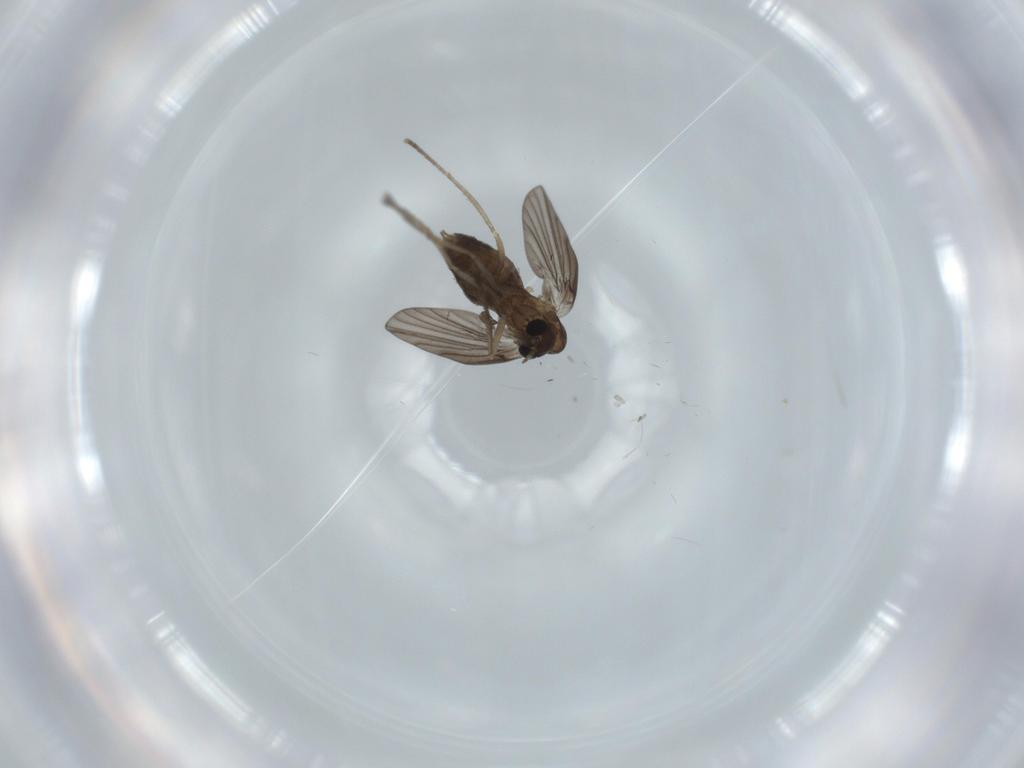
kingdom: Animalia
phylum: Arthropoda
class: Insecta
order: Diptera
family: Psychodidae
